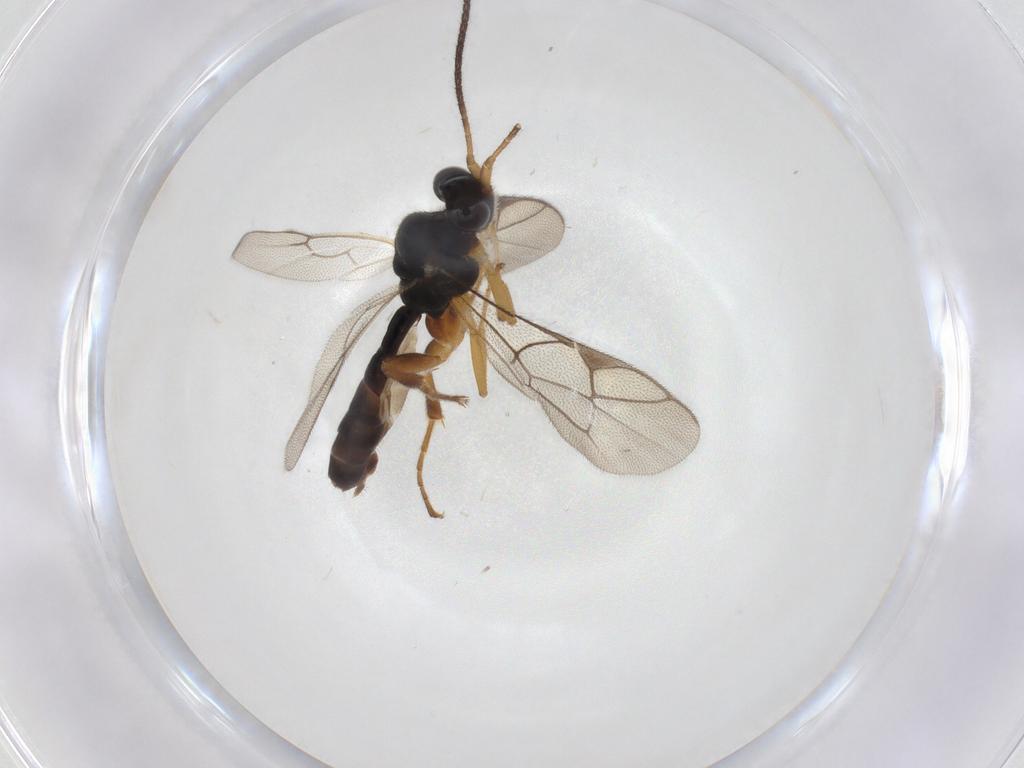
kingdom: Animalia
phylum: Arthropoda
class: Insecta
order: Hymenoptera
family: Ichneumonidae
